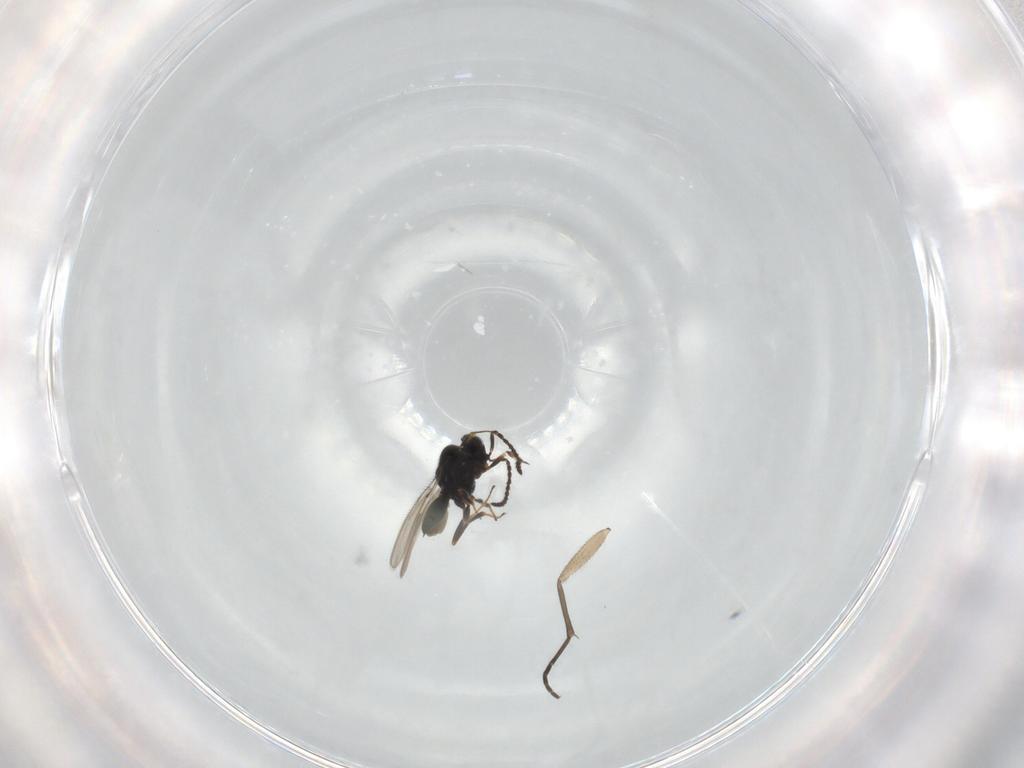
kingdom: Animalia
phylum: Arthropoda
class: Insecta
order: Hymenoptera
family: Scelionidae
